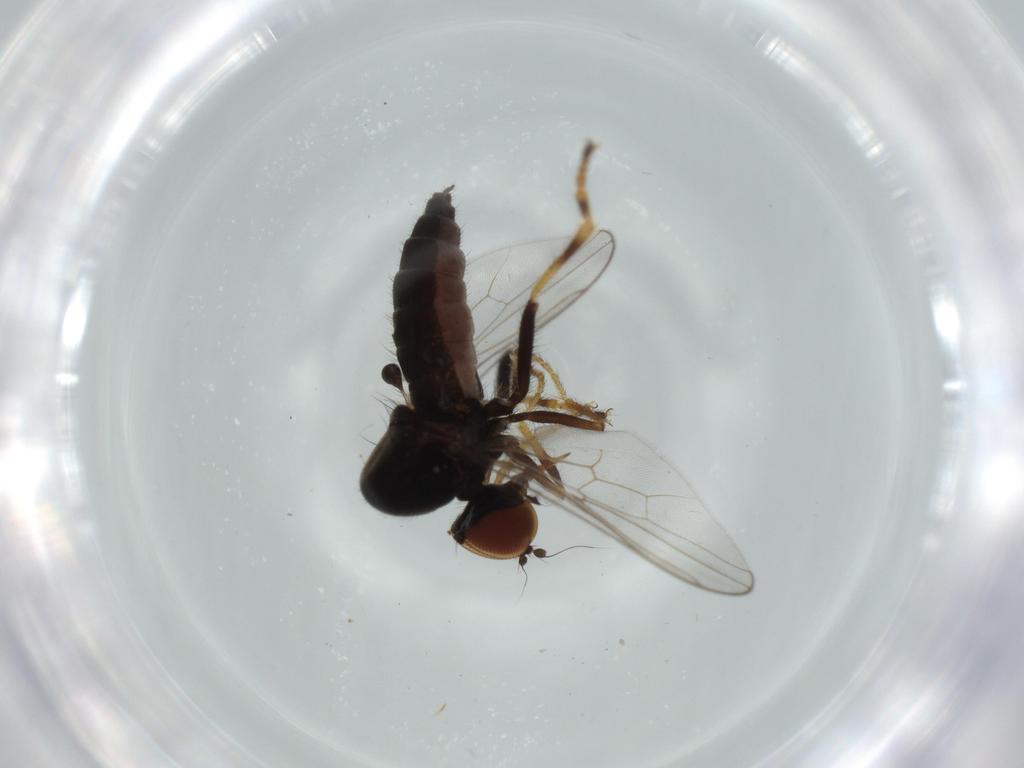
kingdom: Animalia
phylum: Arthropoda
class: Insecta
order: Diptera
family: Hybotidae
